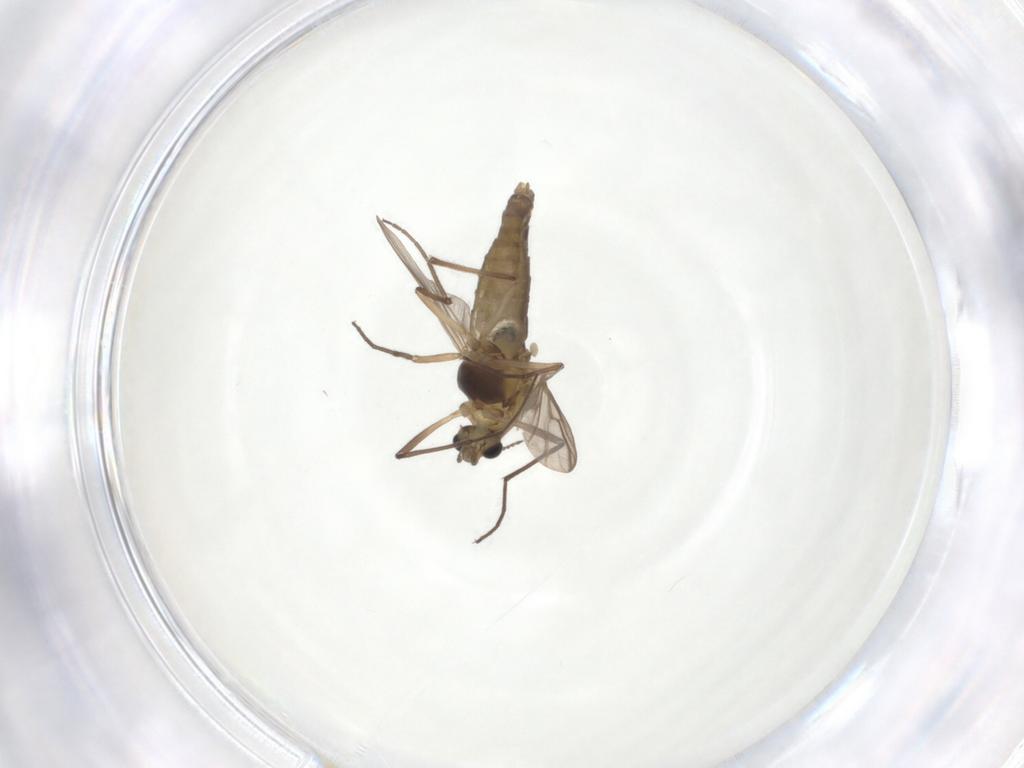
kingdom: Animalia
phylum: Arthropoda
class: Insecta
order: Diptera
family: Chironomidae
